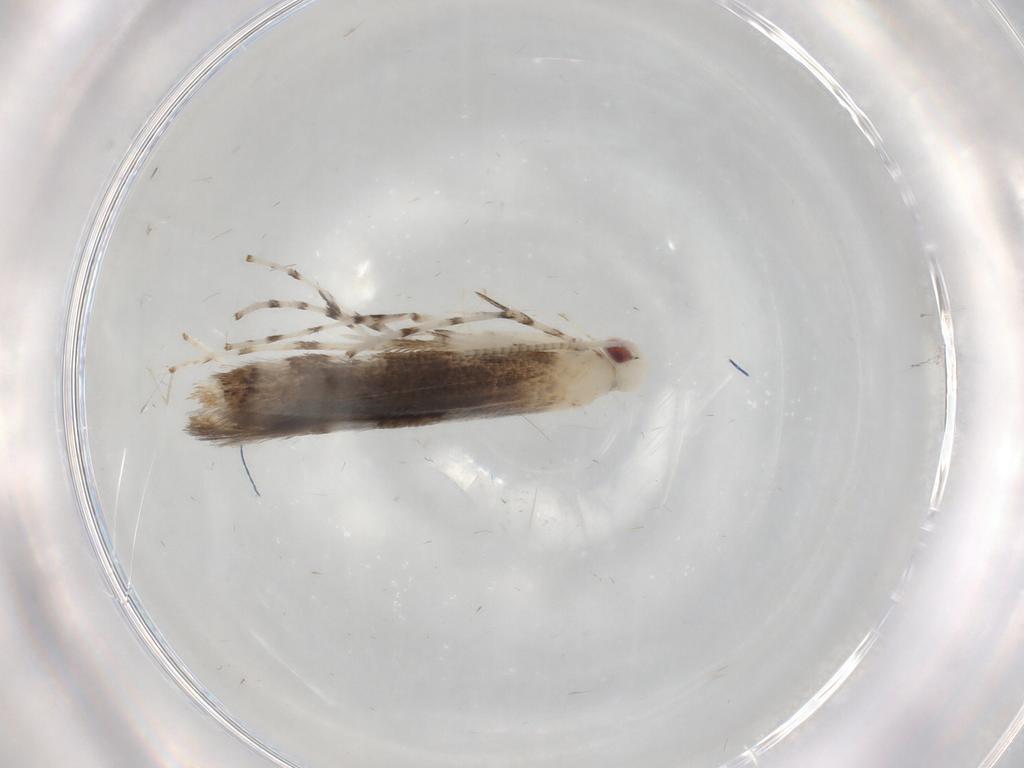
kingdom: Animalia
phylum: Arthropoda
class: Insecta
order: Lepidoptera
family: Gracillariidae
